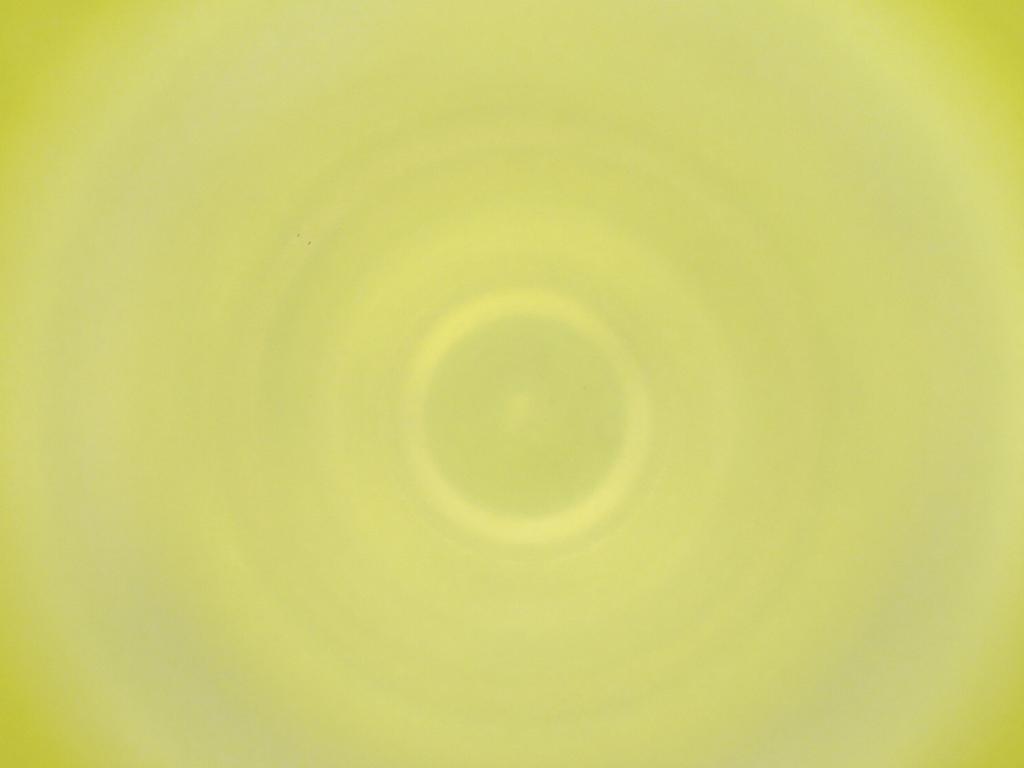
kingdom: Animalia
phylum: Arthropoda
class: Insecta
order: Diptera
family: Cecidomyiidae
